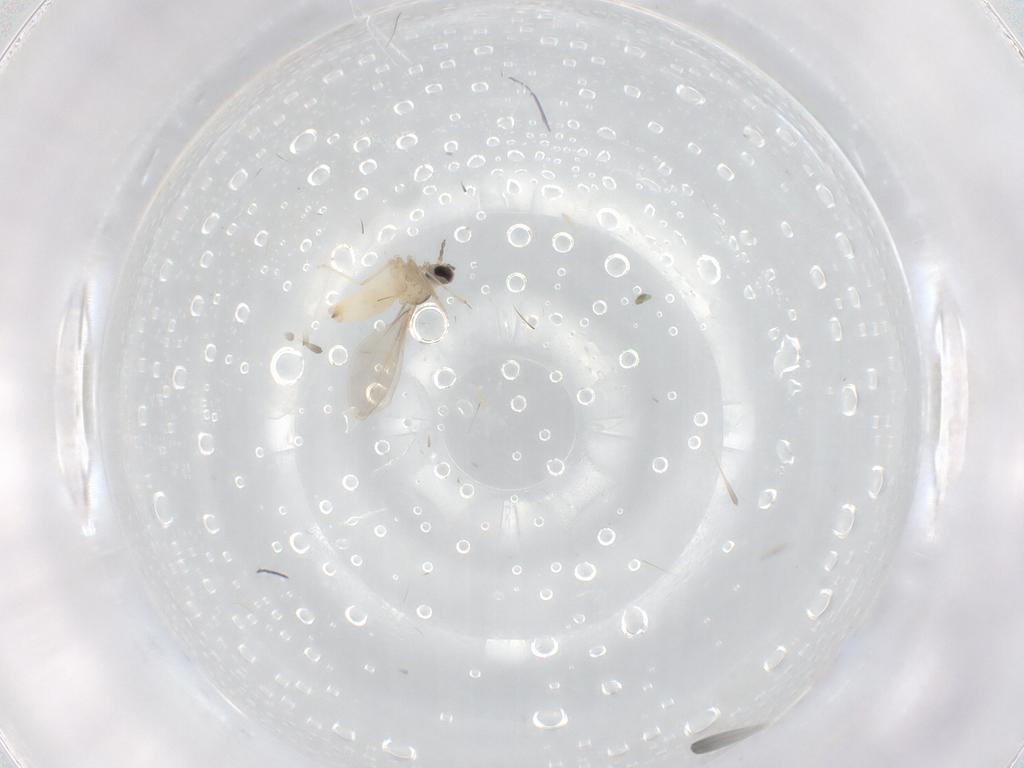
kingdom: Animalia
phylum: Arthropoda
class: Insecta
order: Diptera
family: Cecidomyiidae
